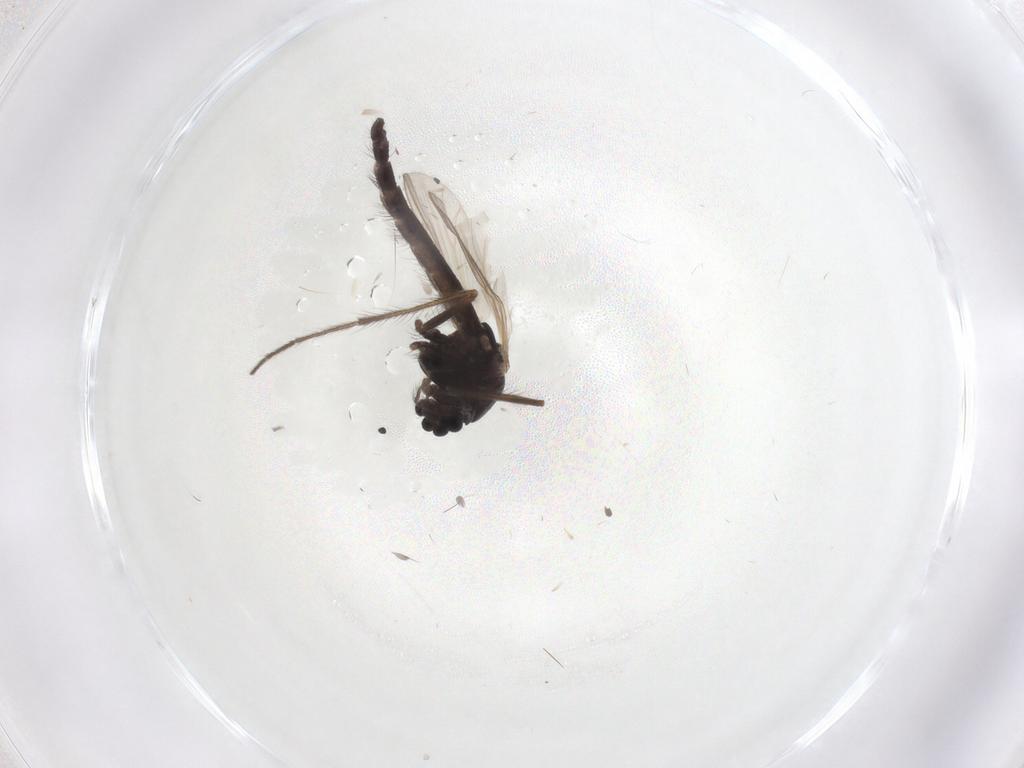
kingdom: Animalia
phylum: Arthropoda
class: Insecta
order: Diptera
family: Chironomidae
